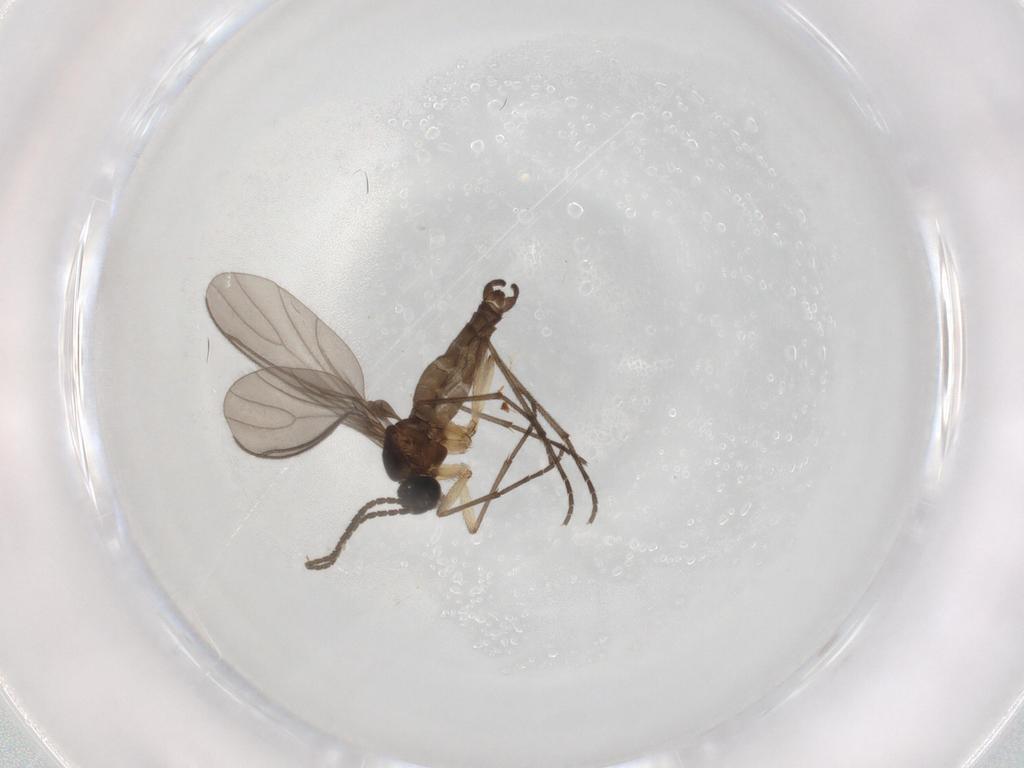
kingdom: Animalia
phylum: Arthropoda
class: Insecta
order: Diptera
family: Sciaridae
